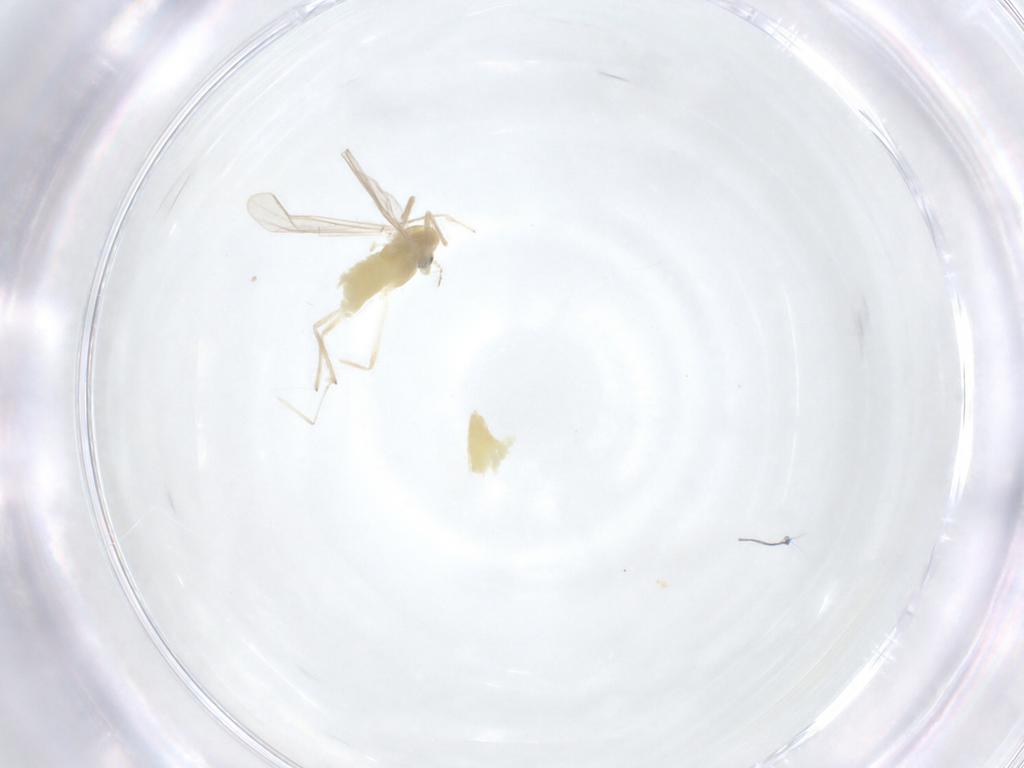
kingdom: Animalia
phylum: Arthropoda
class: Insecta
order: Diptera
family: Chironomidae
